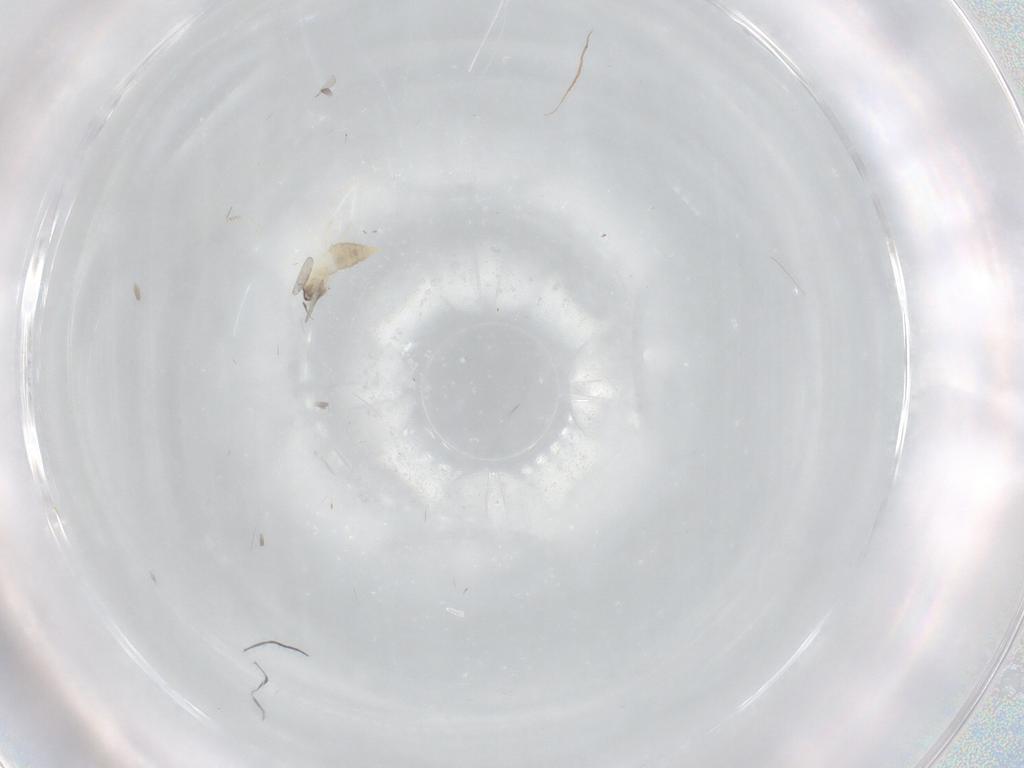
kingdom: Animalia
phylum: Arthropoda
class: Insecta
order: Diptera
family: Cecidomyiidae
